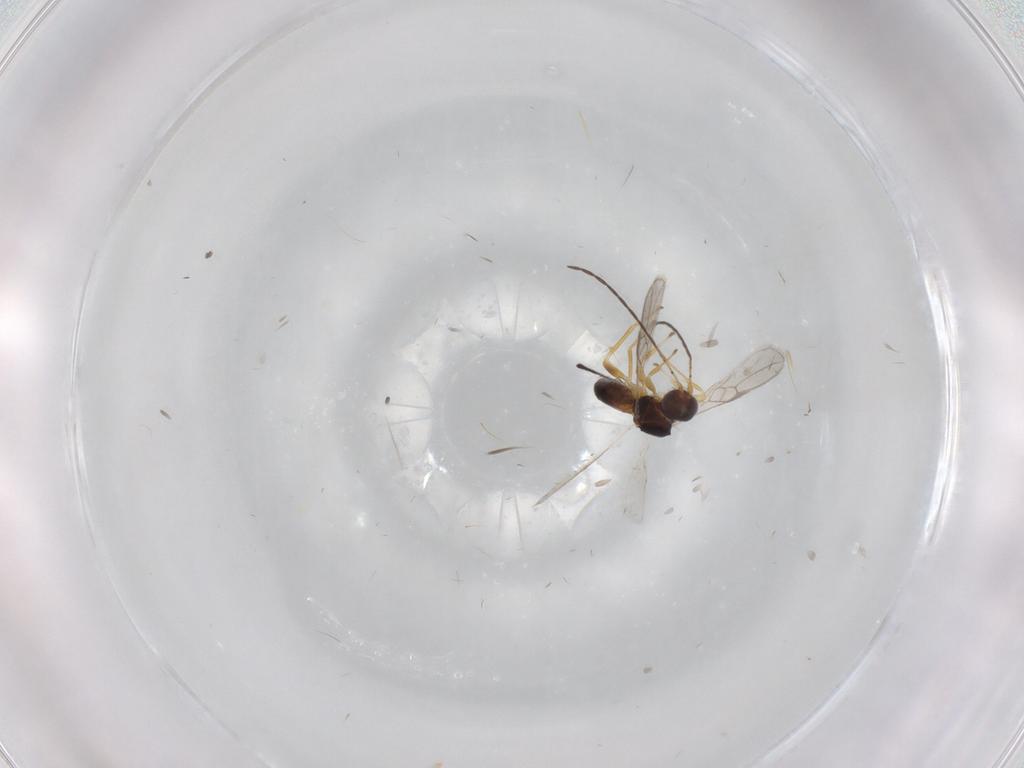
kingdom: Animalia
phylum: Arthropoda
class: Insecta
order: Hymenoptera
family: Braconidae
